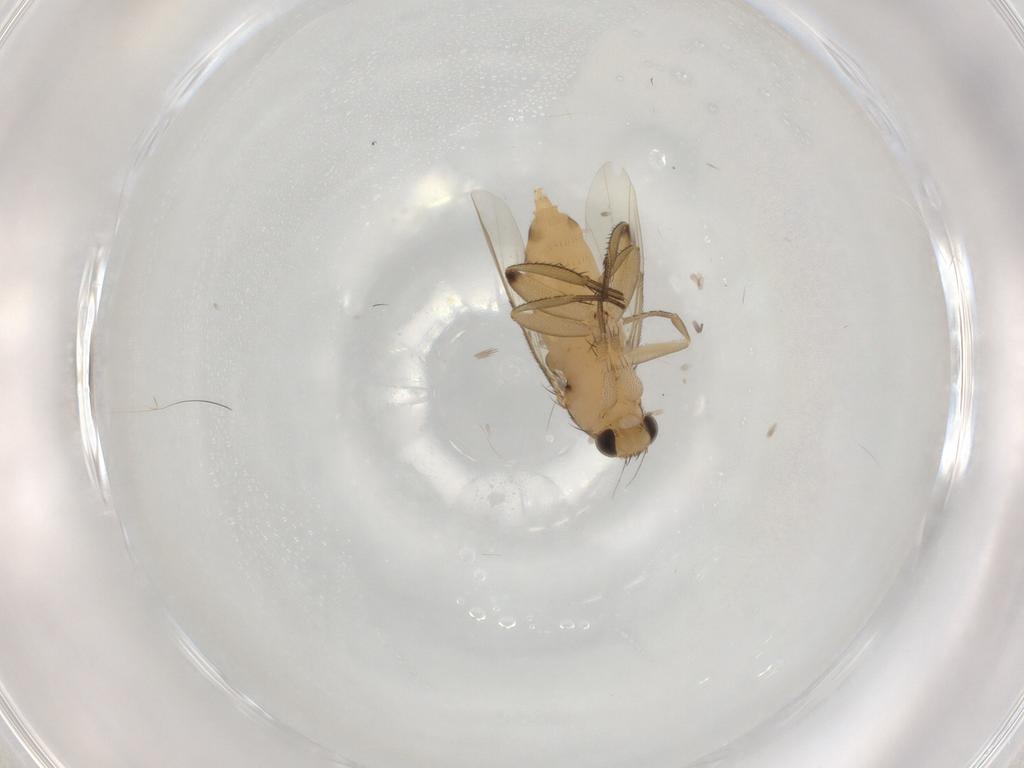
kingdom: Animalia
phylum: Arthropoda
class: Insecta
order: Diptera
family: Phoridae
